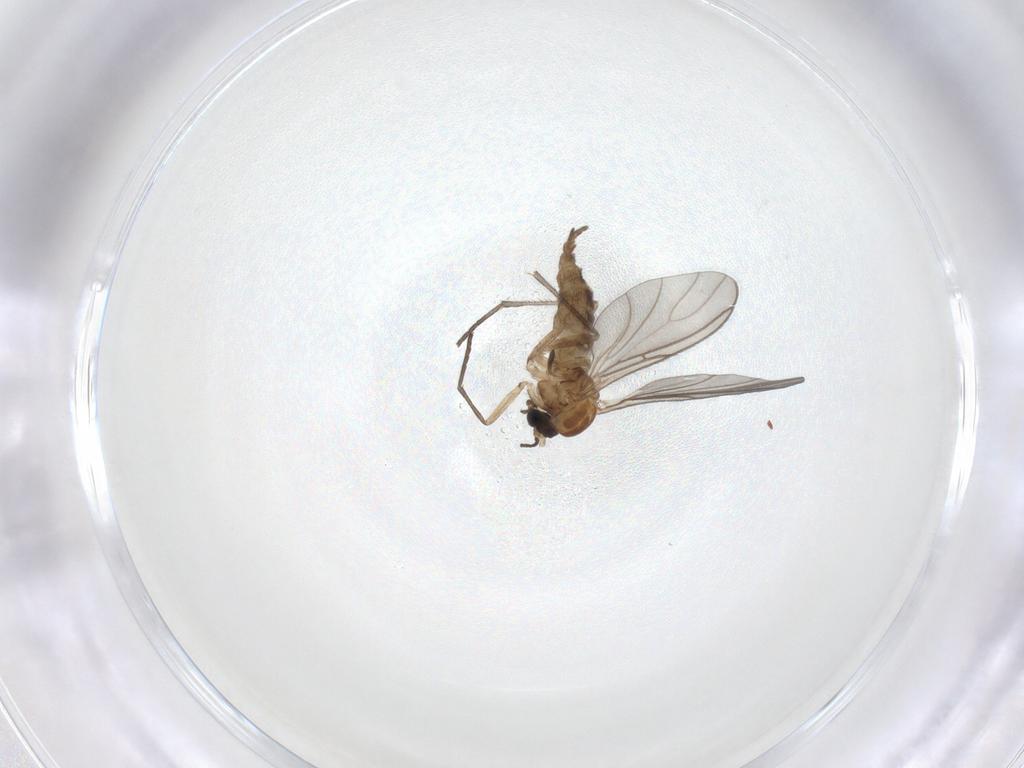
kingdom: Animalia
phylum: Arthropoda
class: Insecta
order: Diptera
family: Sciaridae
